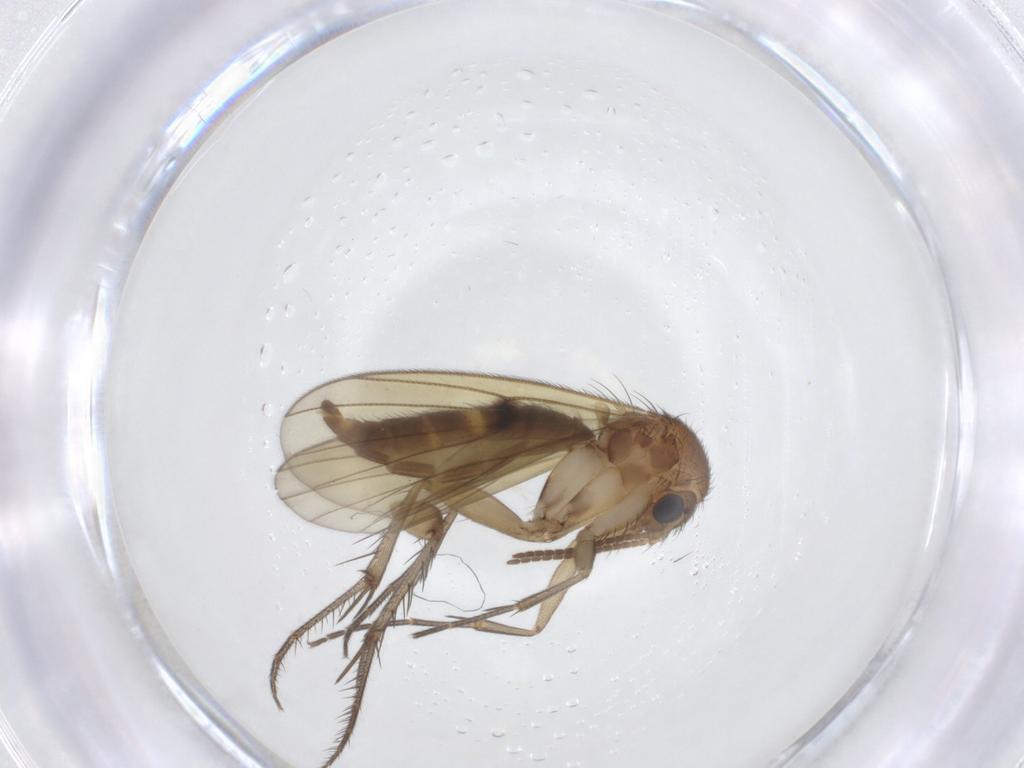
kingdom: Animalia
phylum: Arthropoda
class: Insecta
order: Diptera
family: Mycetophilidae
